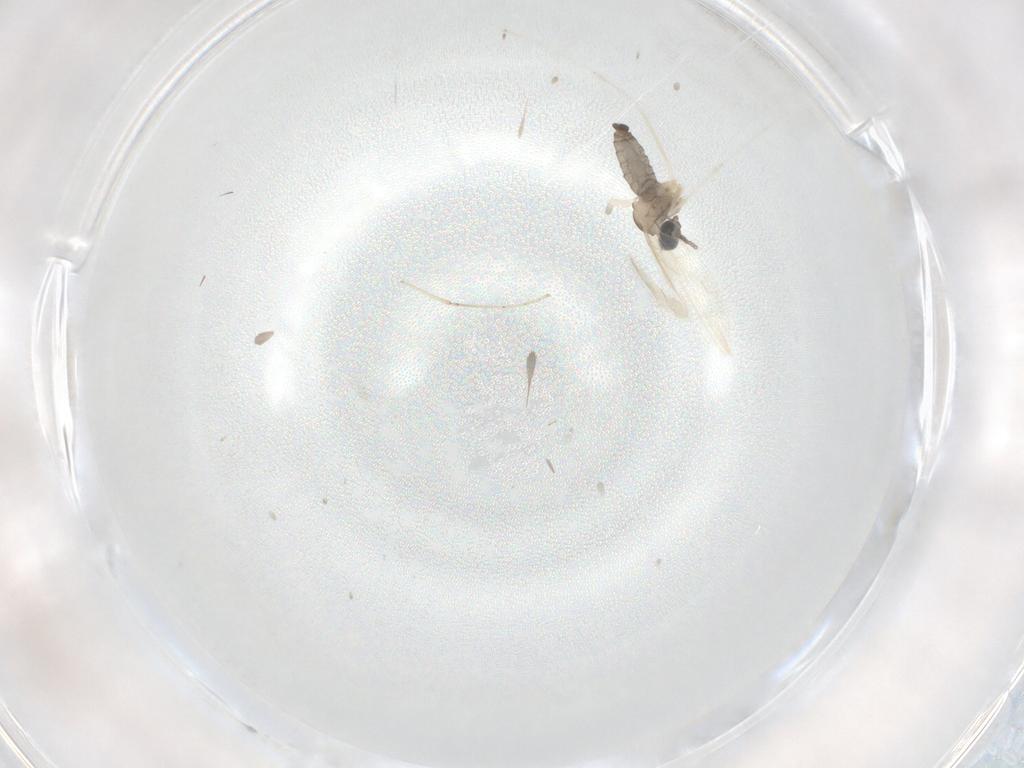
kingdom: Animalia
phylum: Arthropoda
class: Insecta
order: Diptera
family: Cecidomyiidae
